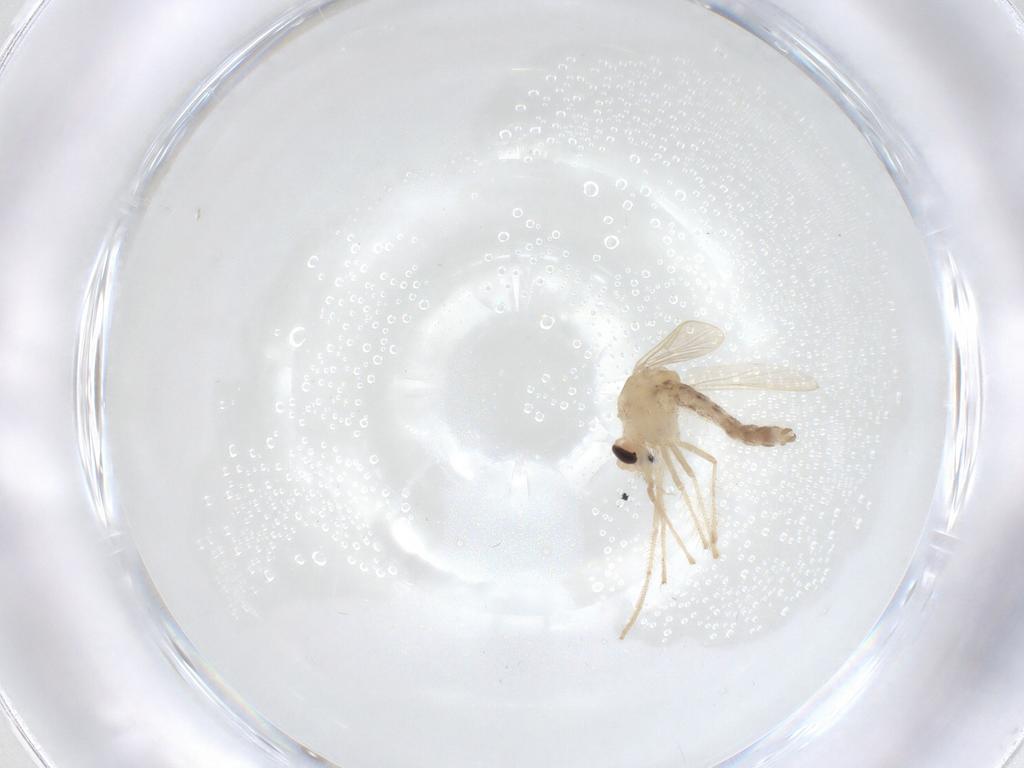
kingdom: Animalia
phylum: Arthropoda
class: Insecta
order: Diptera
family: Chironomidae
